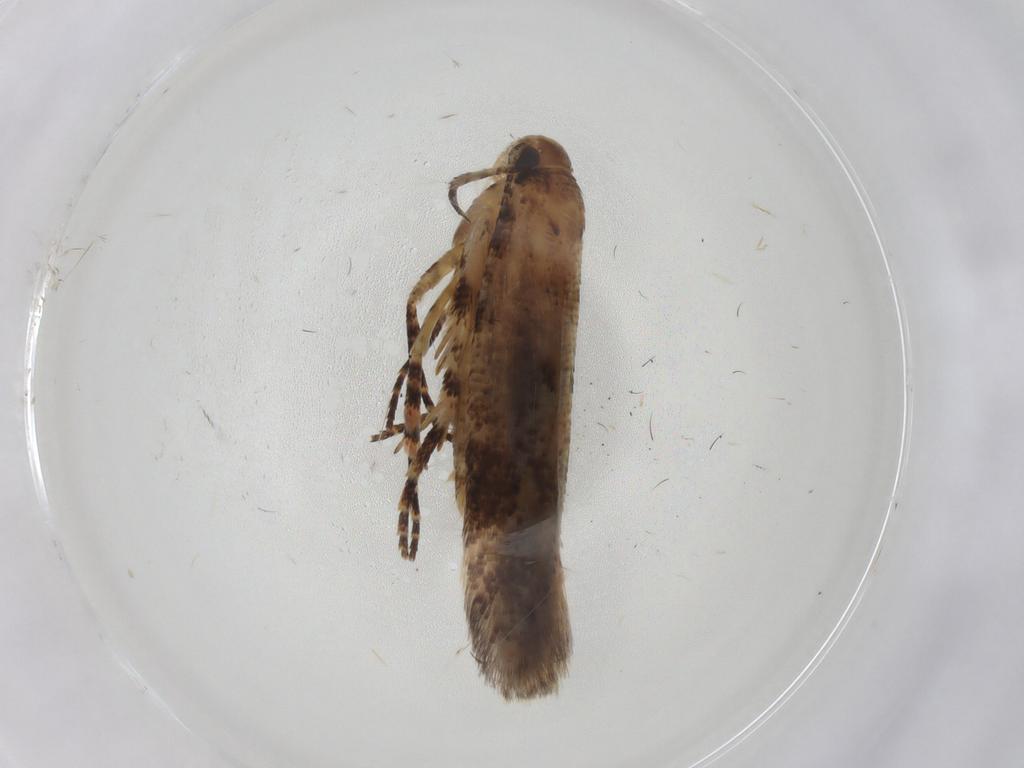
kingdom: Animalia
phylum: Arthropoda
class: Insecta
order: Lepidoptera
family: Gelechiidae
